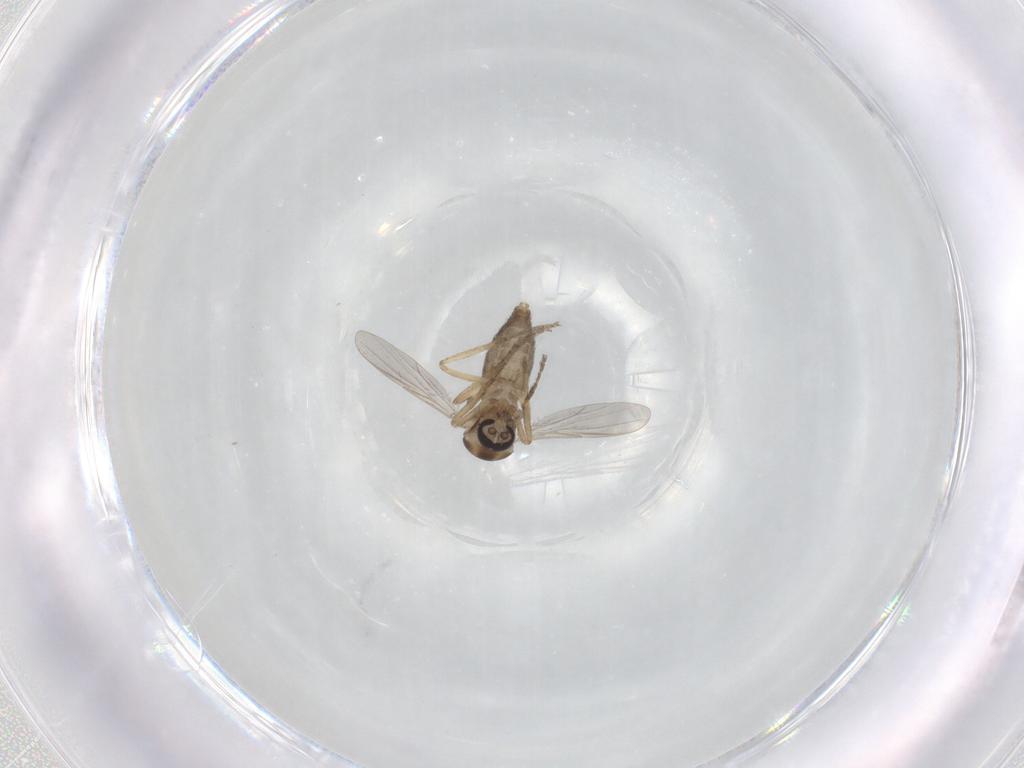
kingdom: Animalia
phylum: Arthropoda
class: Insecta
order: Diptera
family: Ceratopogonidae
